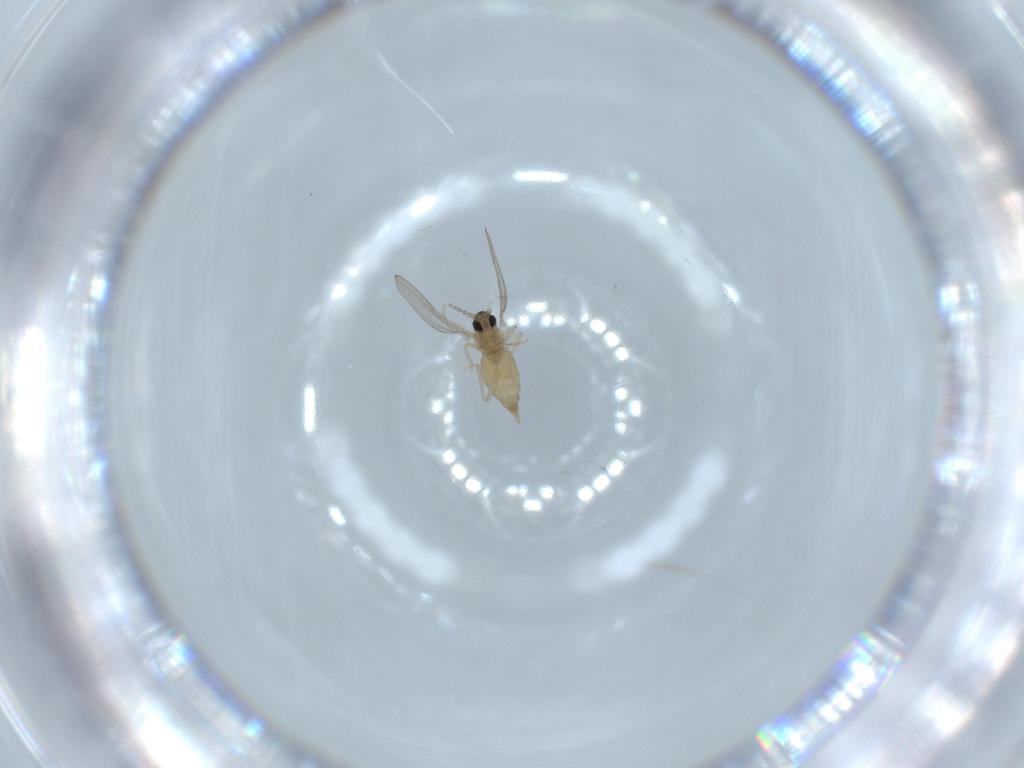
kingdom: Animalia
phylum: Arthropoda
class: Insecta
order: Diptera
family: Cecidomyiidae
